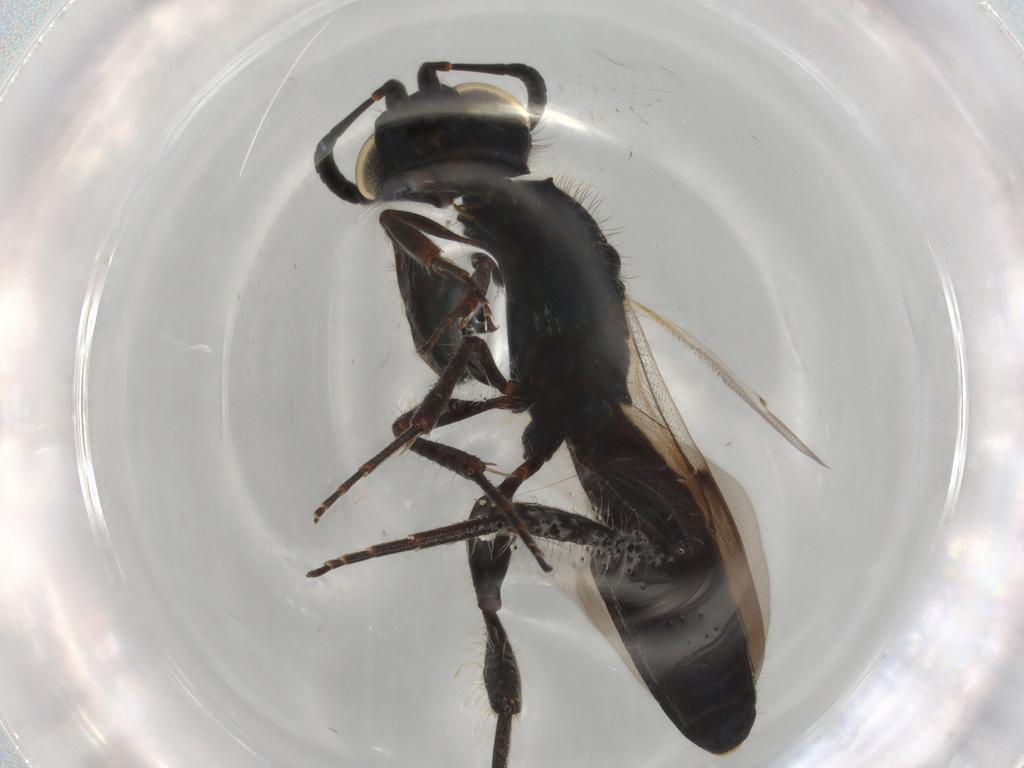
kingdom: Animalia
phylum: Arthropoda
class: Insecta
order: Hymenoptera
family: Scelionidae
